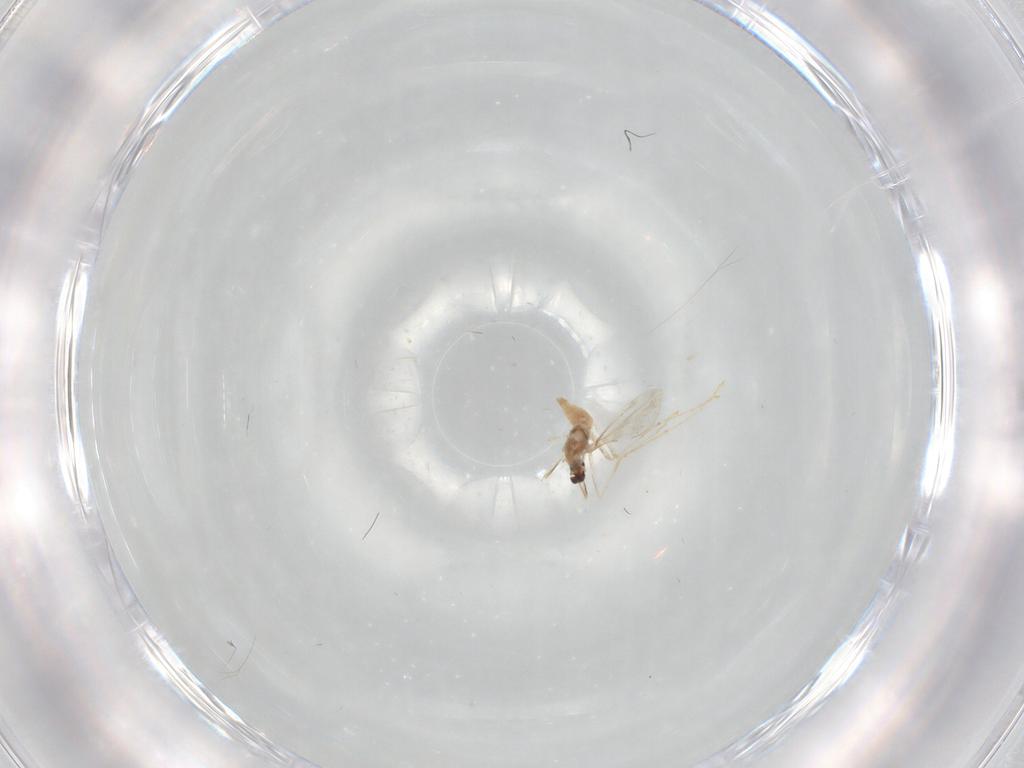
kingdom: Animalia
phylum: Arthropoda
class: Insecta
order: Diptera
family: Cecidomyiidae
